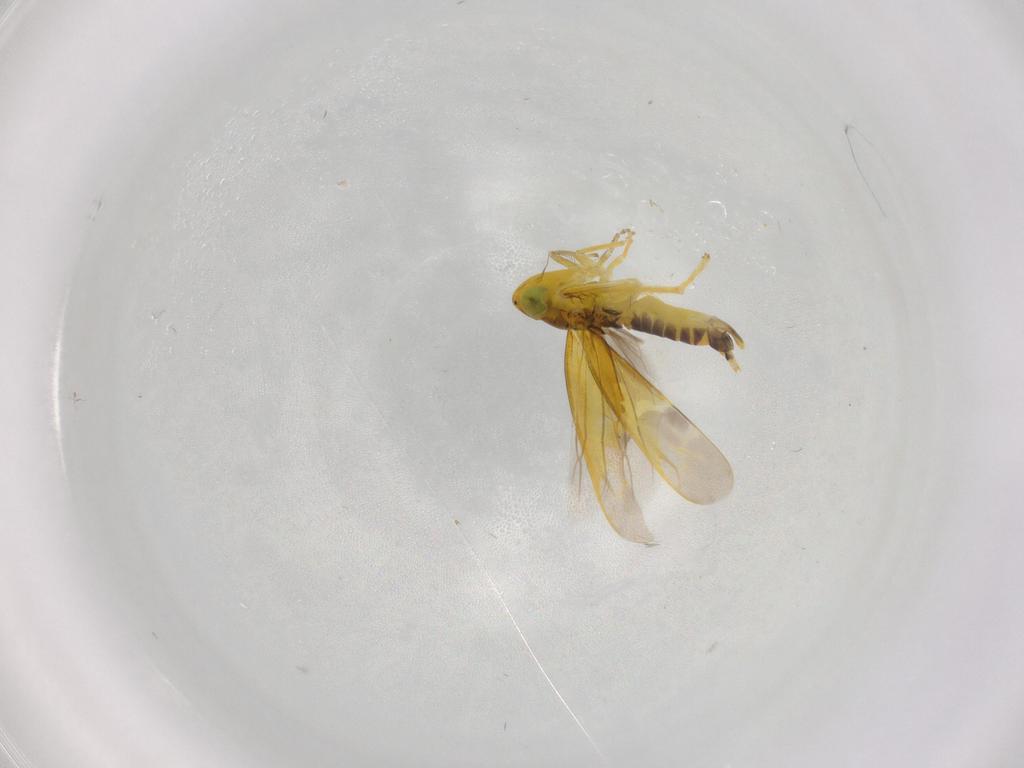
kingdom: Animalia
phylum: Arthropoda
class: Insecta
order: Hemiptera
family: Cicadellidae
